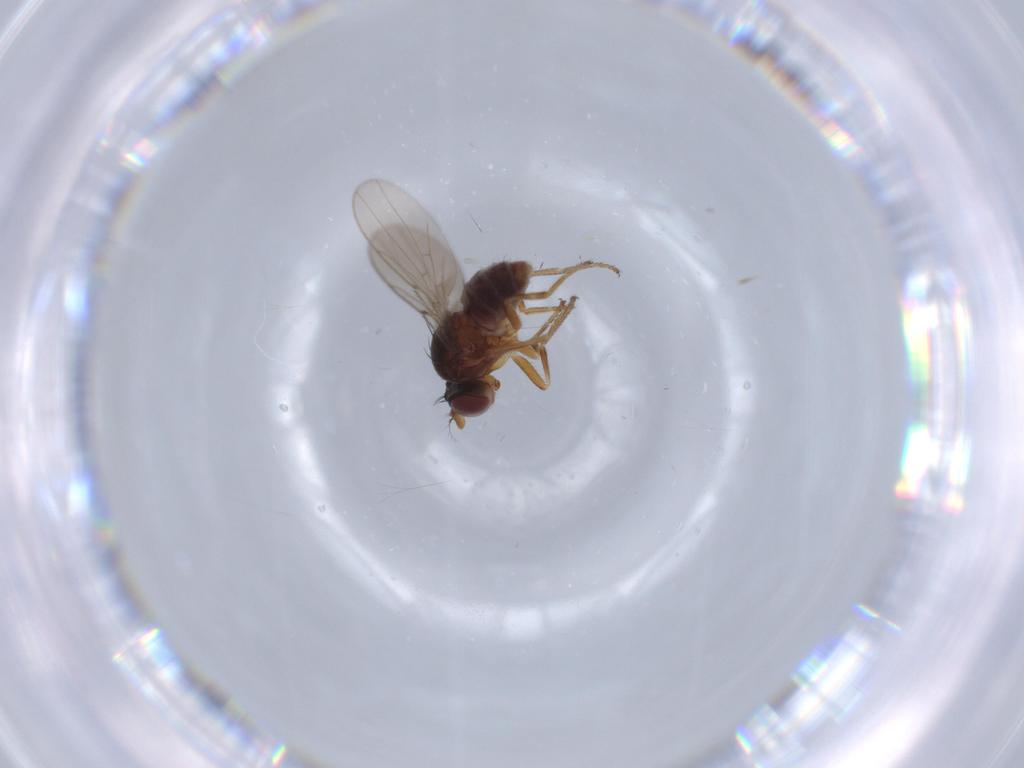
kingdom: Animalia
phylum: Arthropoda
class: Insecta
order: Diptera
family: Ephydridae
